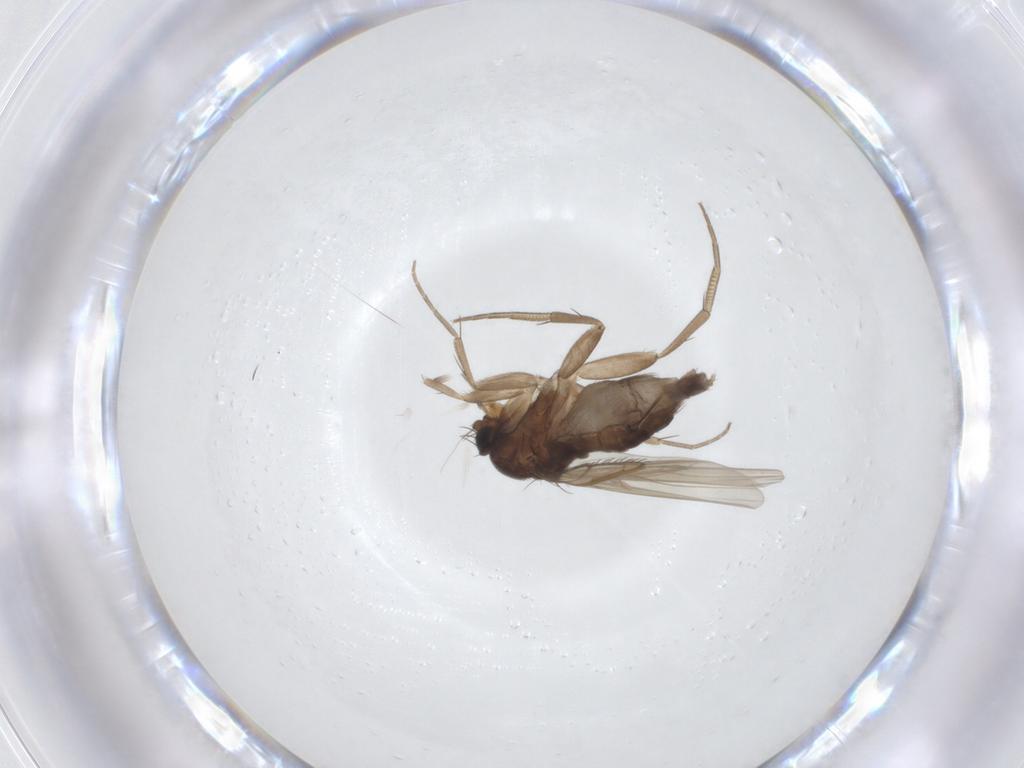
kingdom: Animalia
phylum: Arthropoda
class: Insecta
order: Diptera
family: Phoridae
